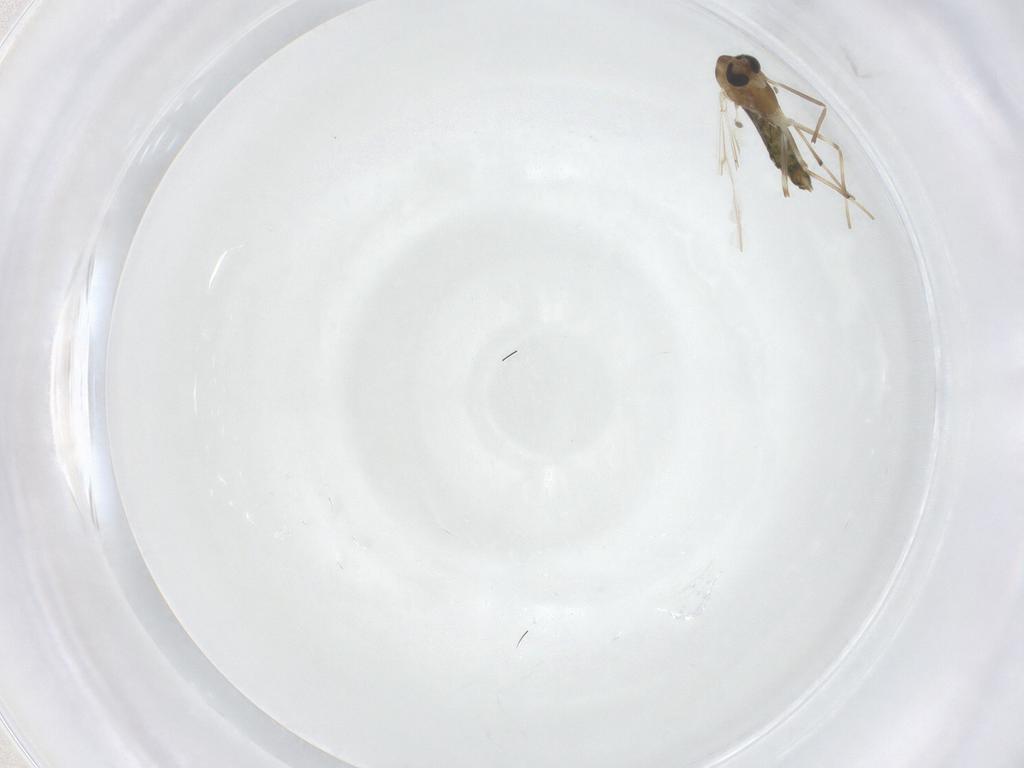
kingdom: Animalia
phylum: Arthropoda
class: Insecta
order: Diptera
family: Chironomidae
